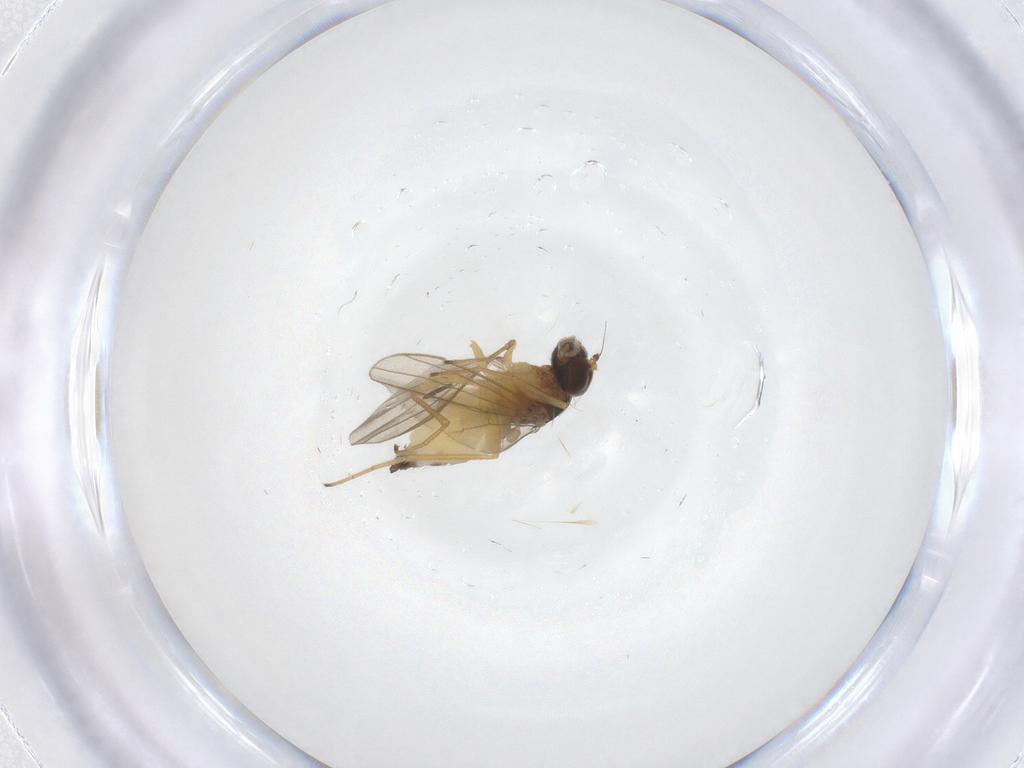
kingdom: Animalia
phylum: Arthropoda
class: Insecta
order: Diptera
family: Dolichopodidae
